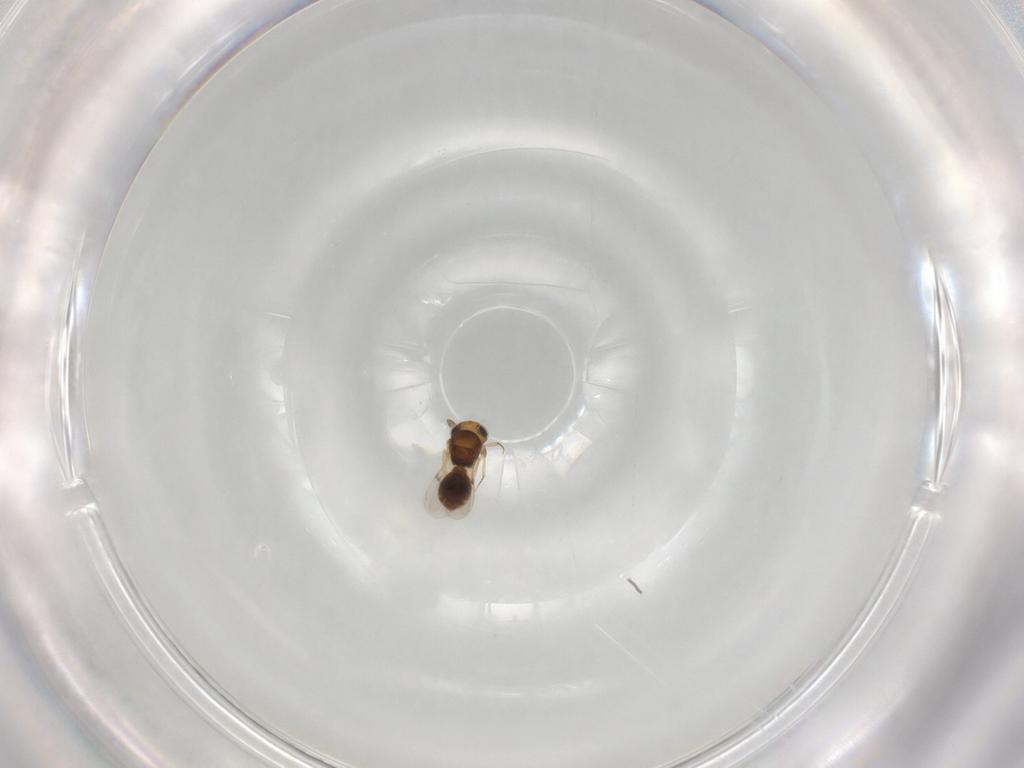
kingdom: Animalia
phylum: Arthropoda
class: Insecta
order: Hymenoptera
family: Scelionidae
